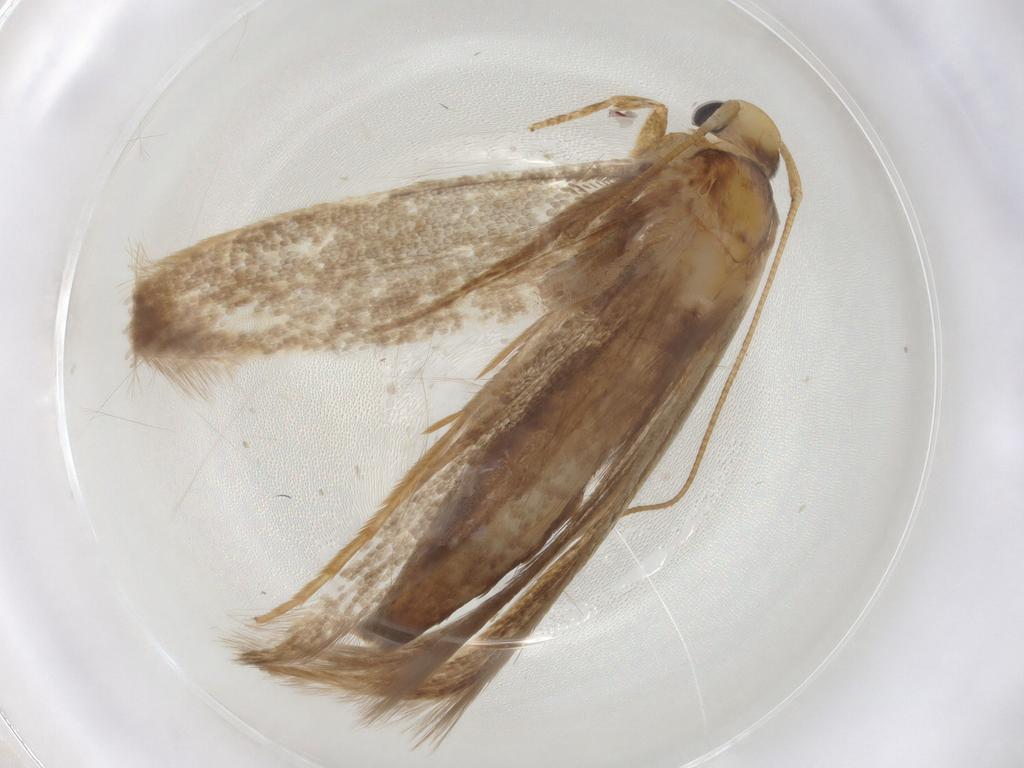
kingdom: Animalia
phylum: Arthropoda
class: Insecta
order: Lepidoptera
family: Tineidae
